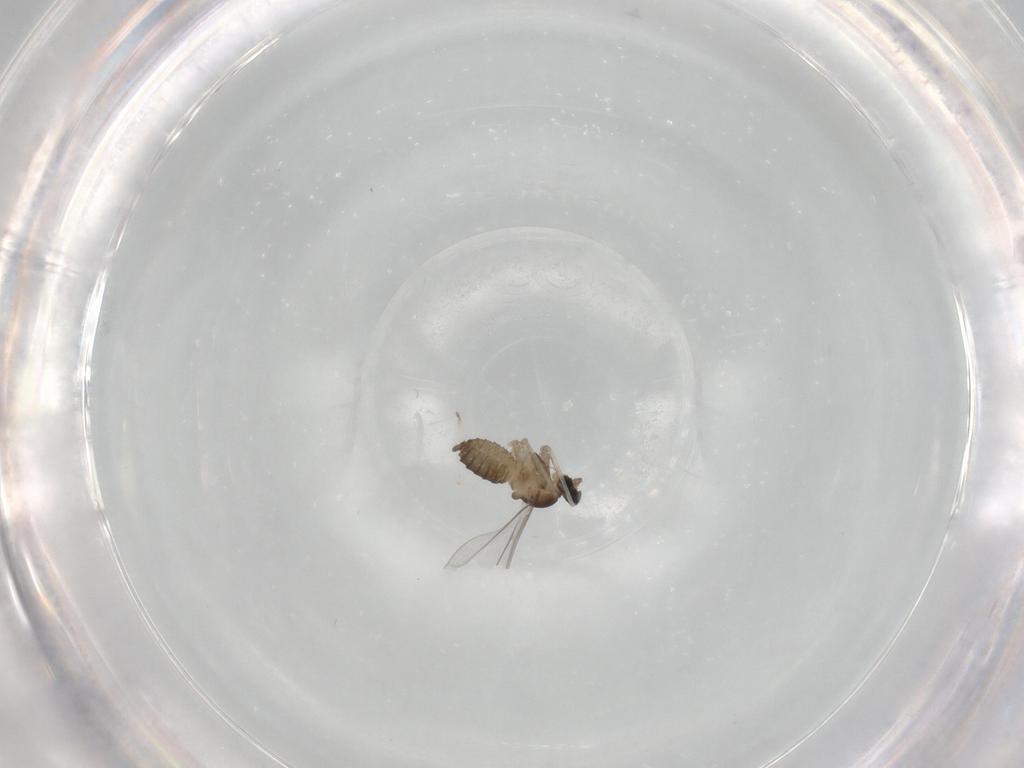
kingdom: Animalia
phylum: Arthropoda
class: Insecta
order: Diptera
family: Cecidomyiidae
